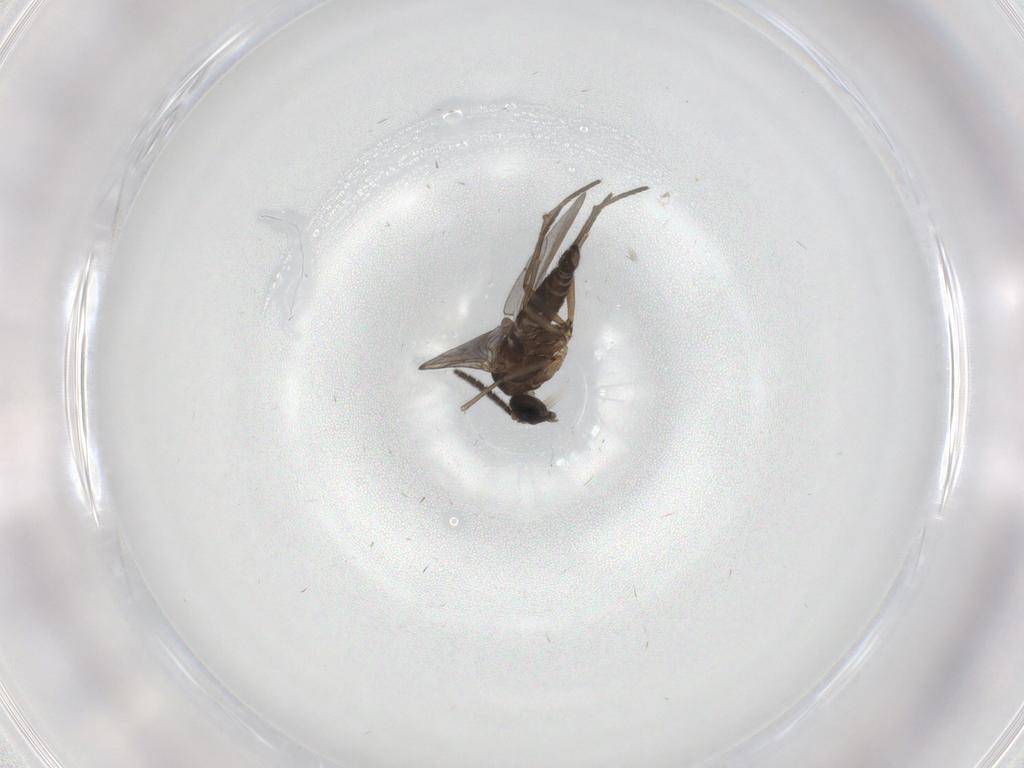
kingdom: Animalia
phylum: Arthropoda
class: Insecta
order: Diptera
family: Sciaridae
